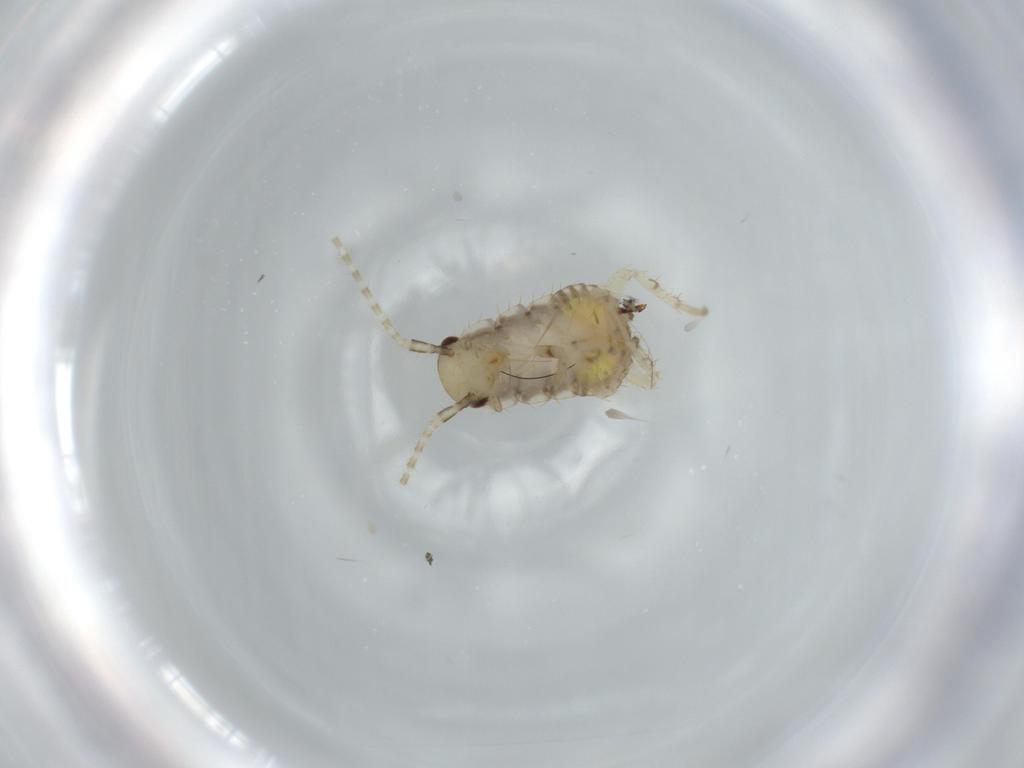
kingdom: Animalia
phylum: Arthropoda
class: Insecta
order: Blattodea
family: Ectobiidae
